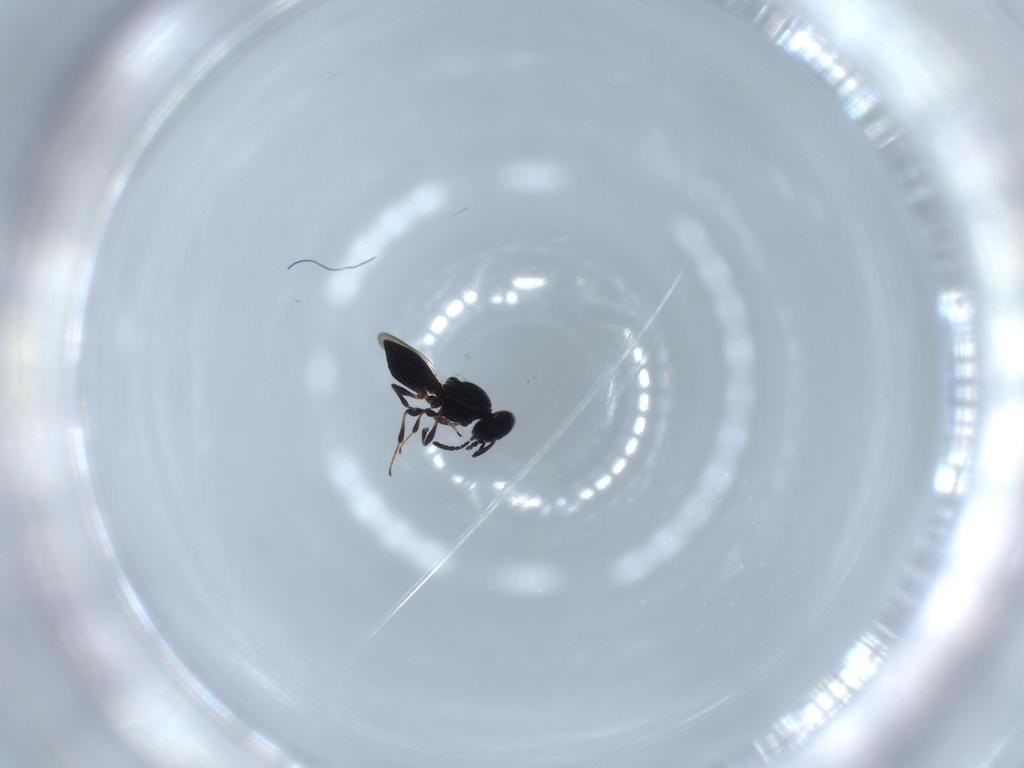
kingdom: Animalia
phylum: Arthropoda
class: Insecta
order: Hymenoptera
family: Platygastridae
